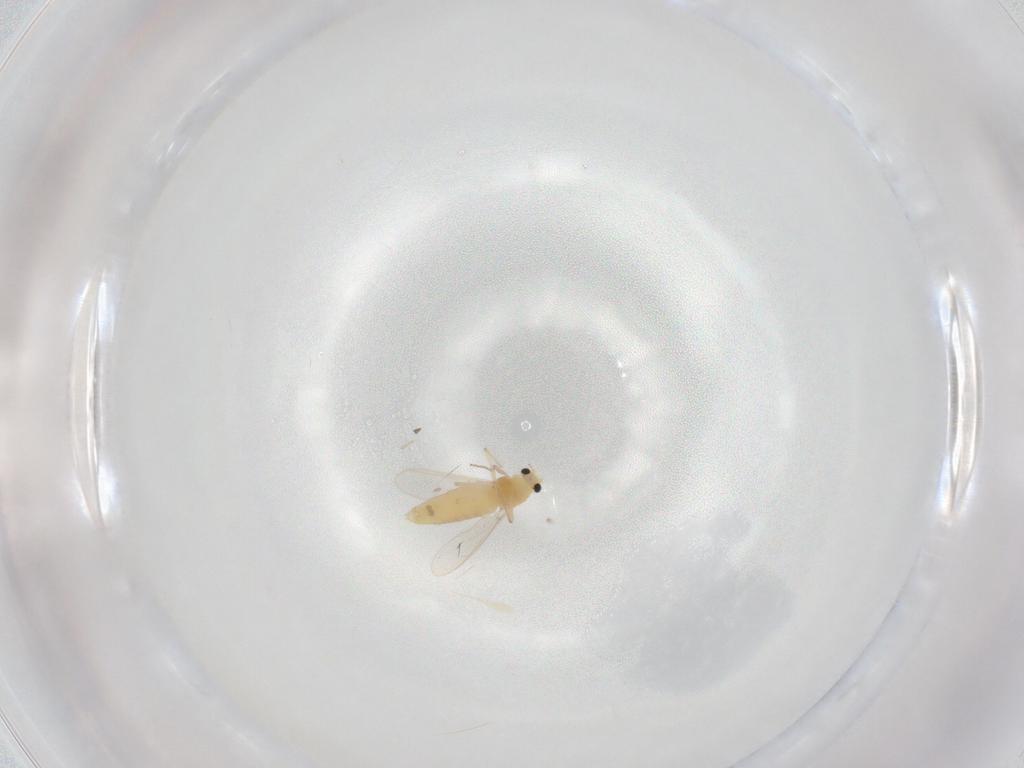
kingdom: Animalia
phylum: Arthropoda
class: Insecta
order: Diptera
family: Chironomidae
